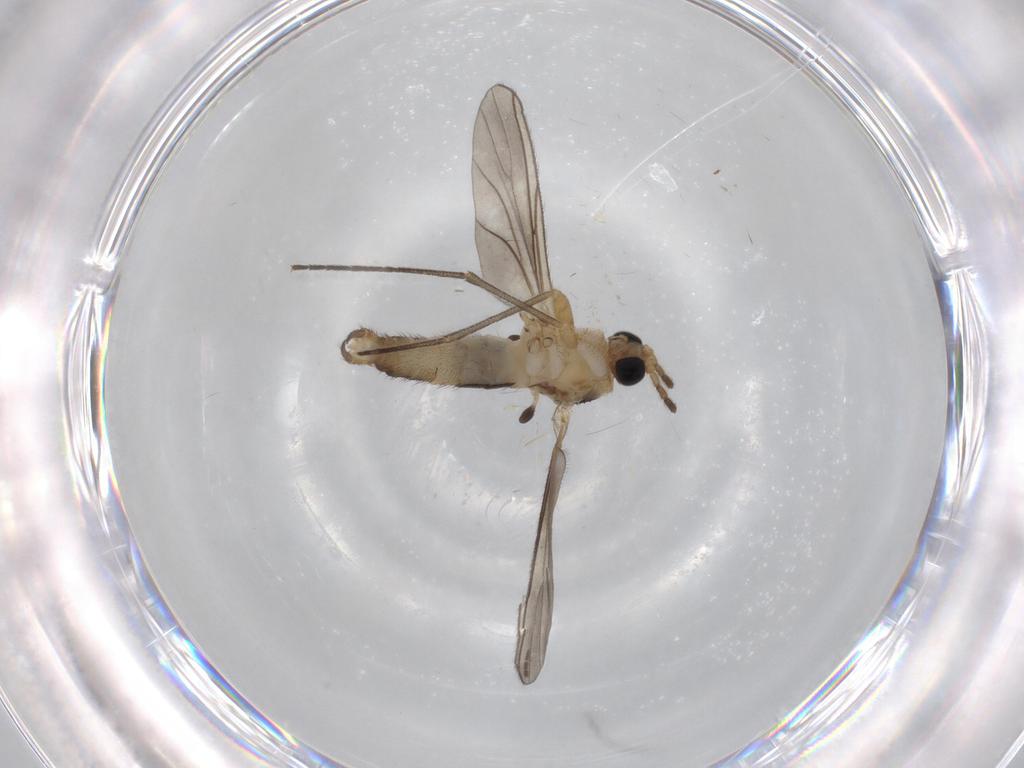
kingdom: Animalia
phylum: Arthropoda
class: Insecta
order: Diptera
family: Sciaridae
